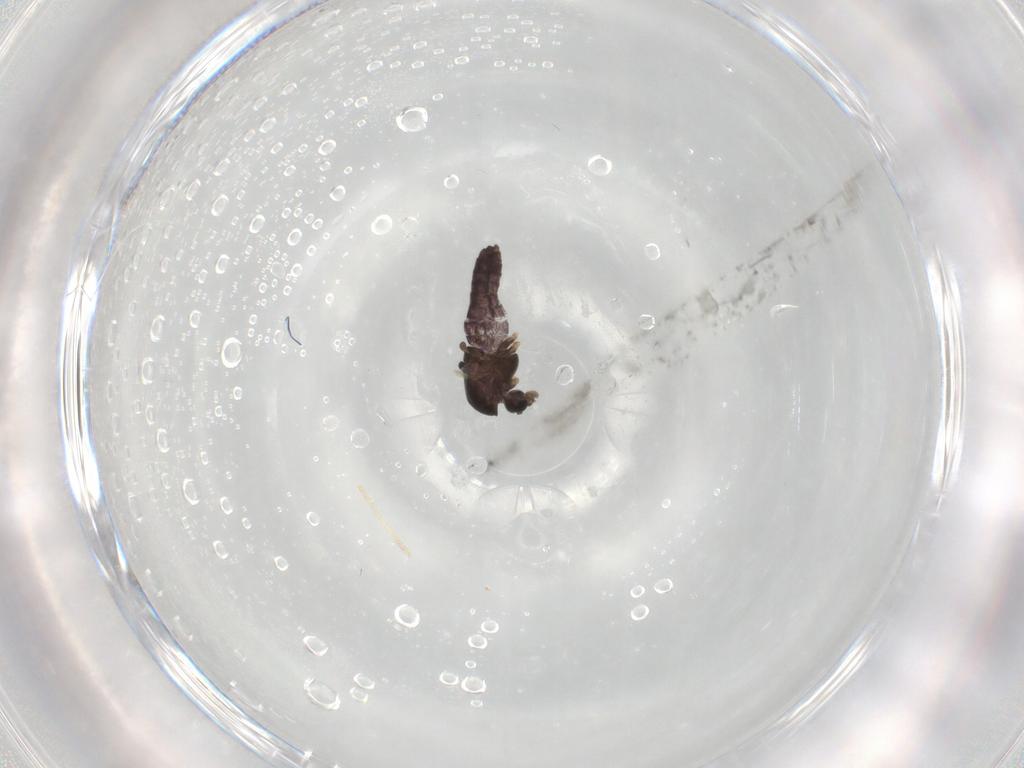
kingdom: Animalia
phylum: Arthropoda
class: Insecta
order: Diptera
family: Chironomidae
